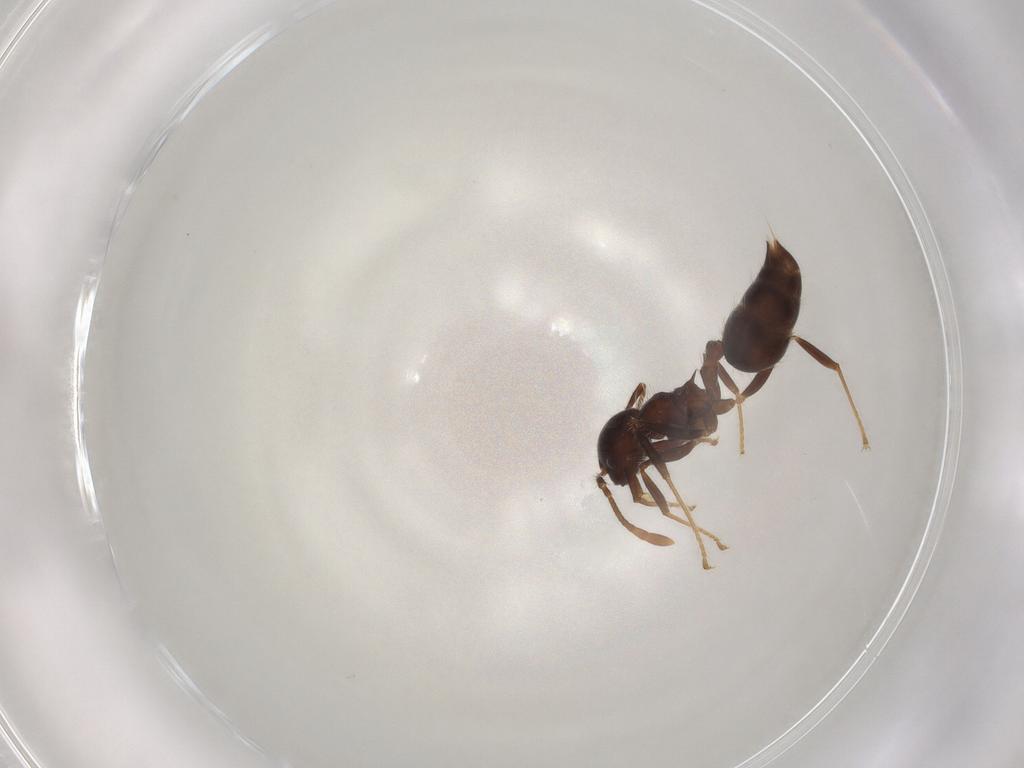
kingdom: Animalia
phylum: Arthropoda
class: Insecta
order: Hymenoptera
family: Formicidae
